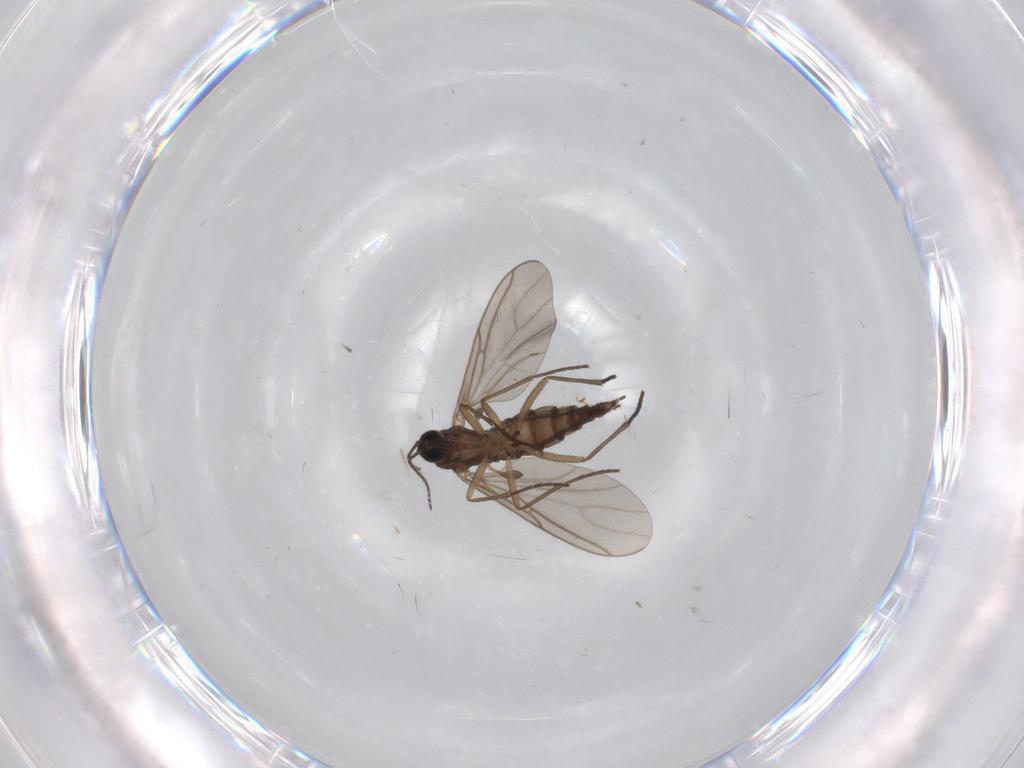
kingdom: Animalia
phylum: Arthropoda
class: Insecta
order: Diptera
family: Sciaridae
